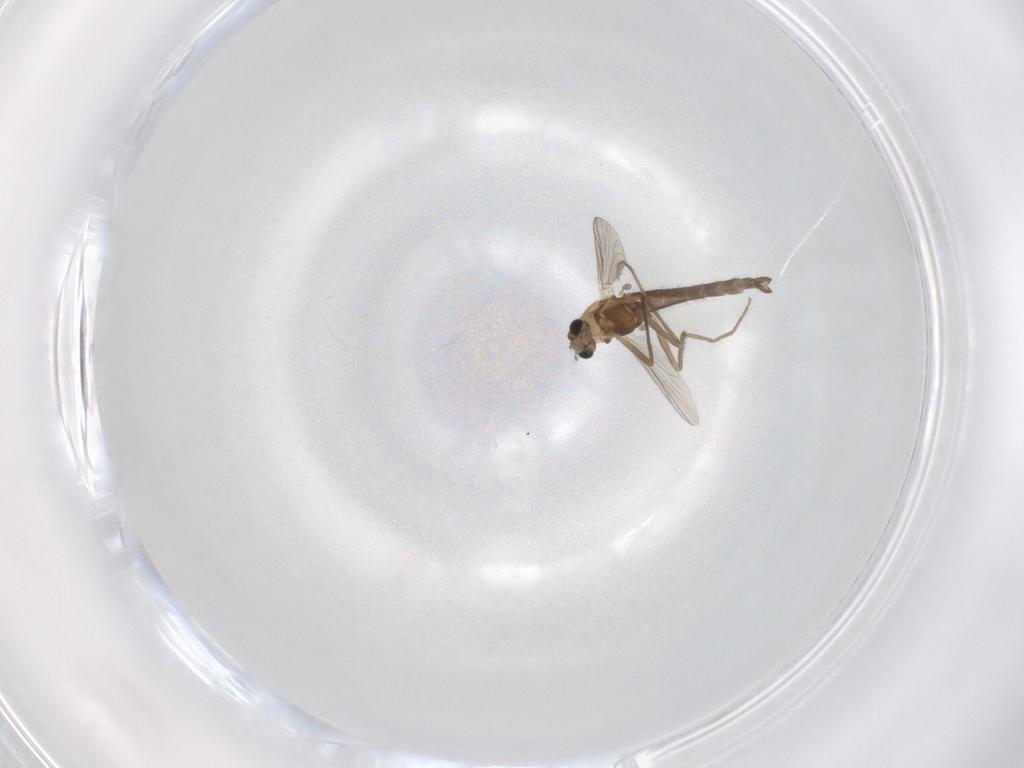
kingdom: Animalia
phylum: Arthropoda
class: Insecta
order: Diptera
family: Chironomidae
